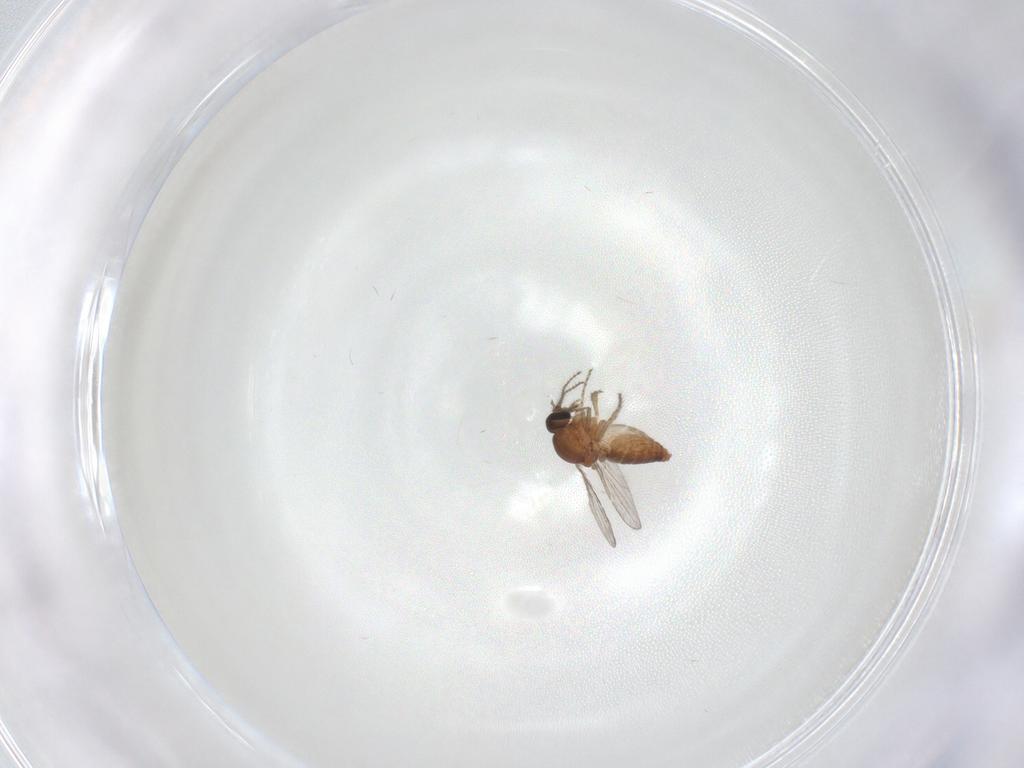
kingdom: Animalia
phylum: Arthropoda
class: Insecta
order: Diptera
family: Ceratopogonidae
